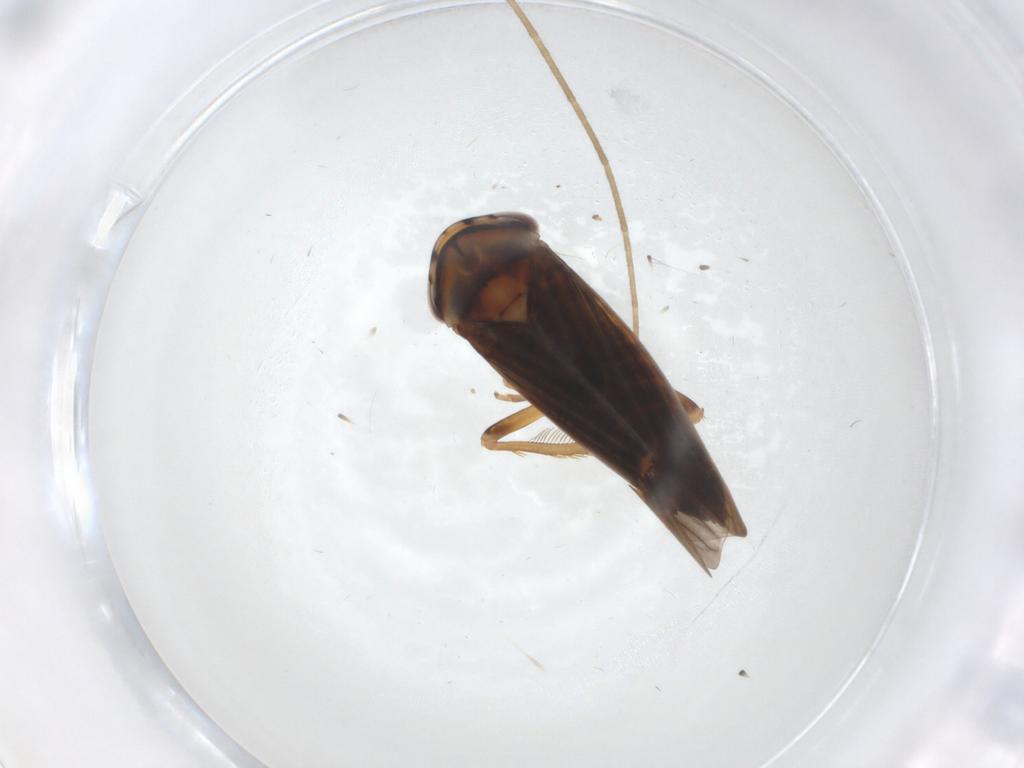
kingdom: Animalia
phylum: Arthropoda
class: Insecta
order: Hemiptera
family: Cicadellidae
